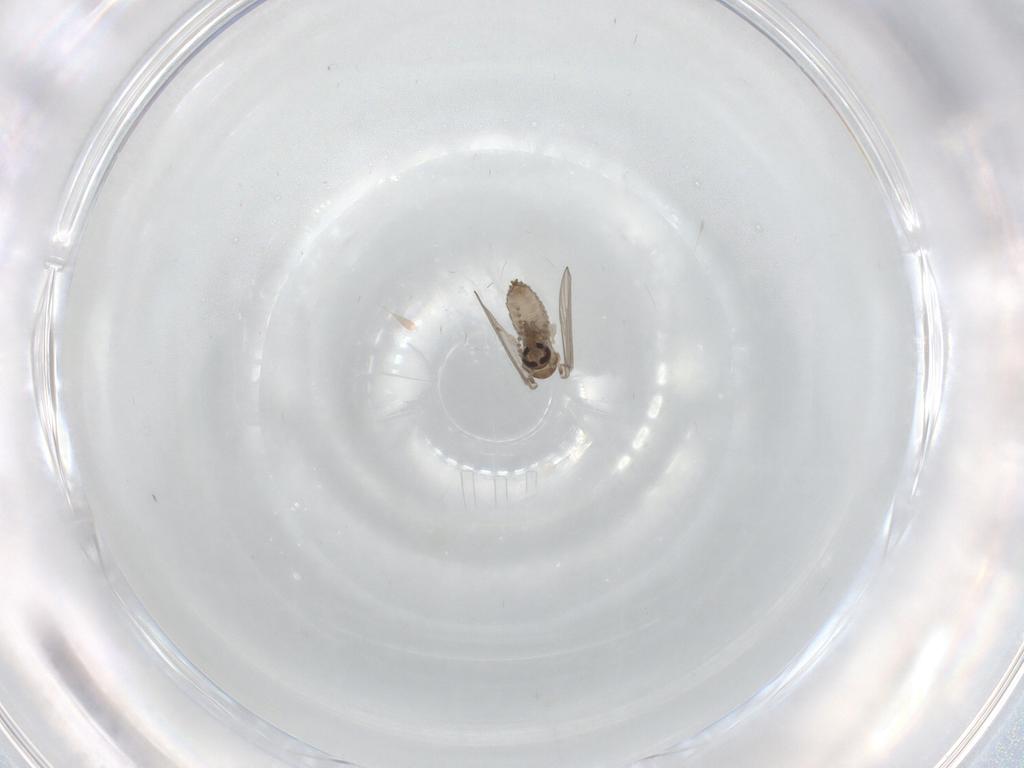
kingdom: Animalia
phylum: Arthropoda
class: Insecta
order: Diptera
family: Psychodidae
